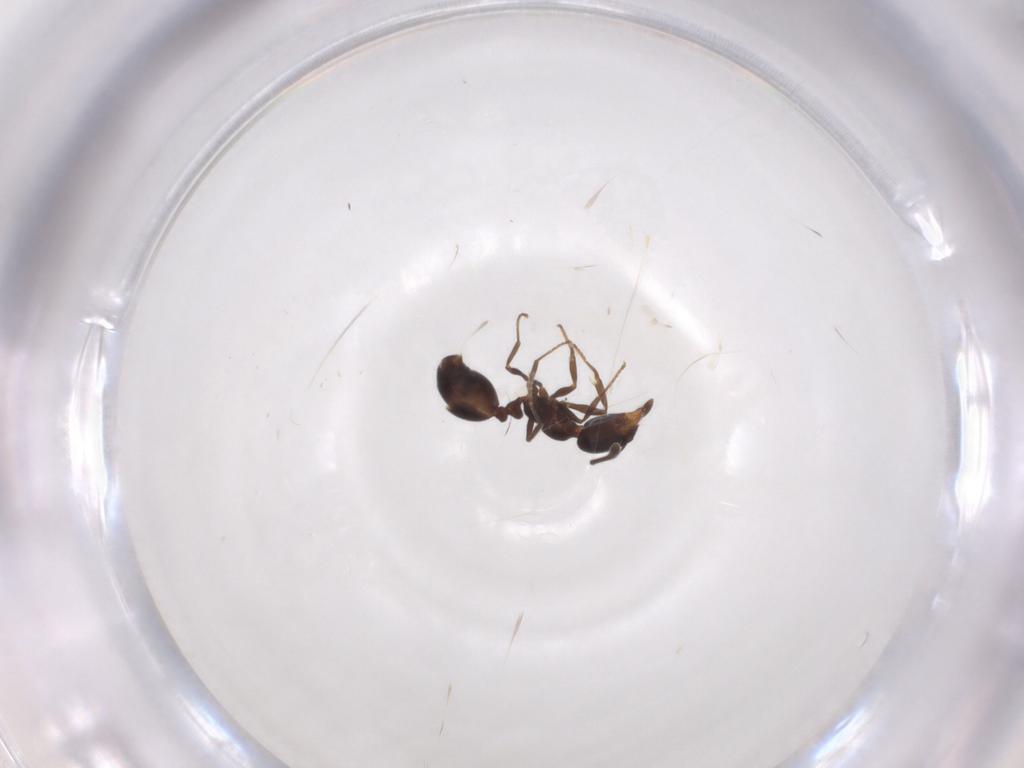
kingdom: Animalia
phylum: Arthropoda
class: Insecta
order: Hymenoptera
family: Formicidae
